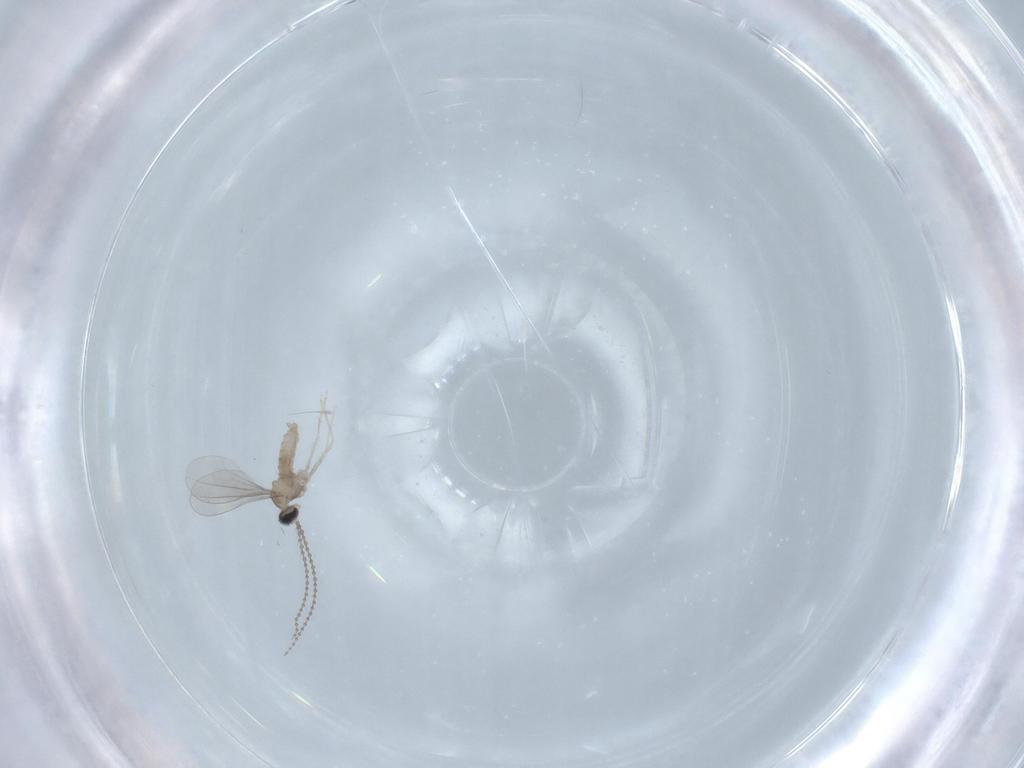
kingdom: Animalia
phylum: Arthropoda
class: Insecta
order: Diptera
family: Cecidomyiidae
